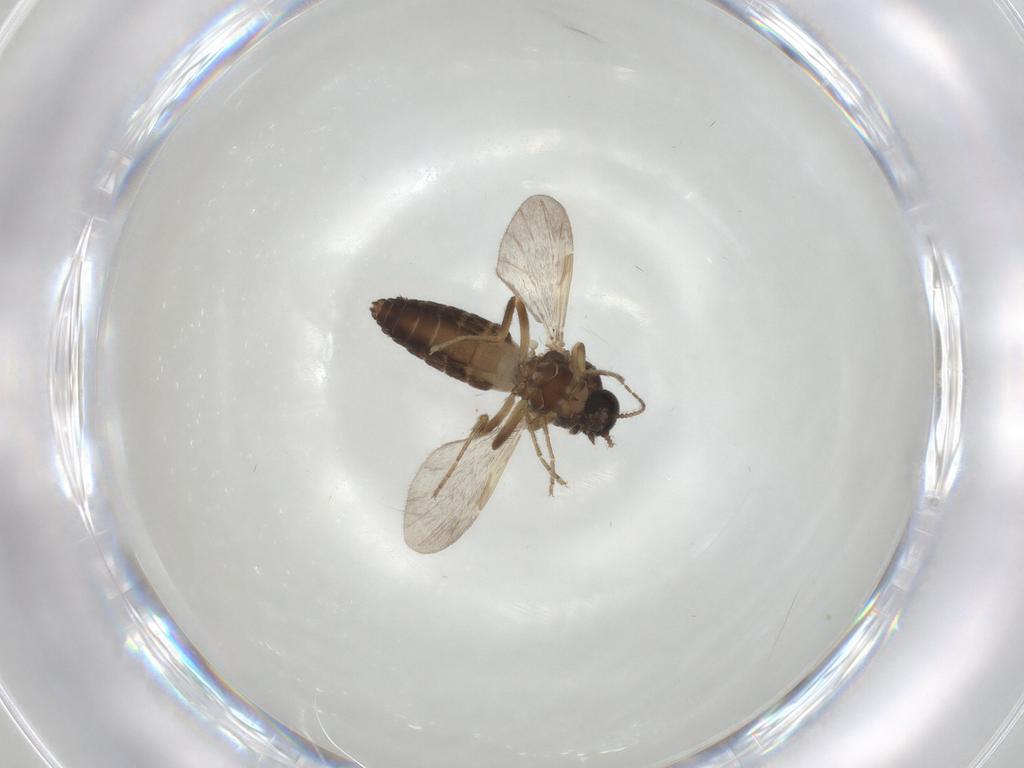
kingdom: Animalia
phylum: Arthropoda
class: Insecta
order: Diptera
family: Ceratopogonidae
